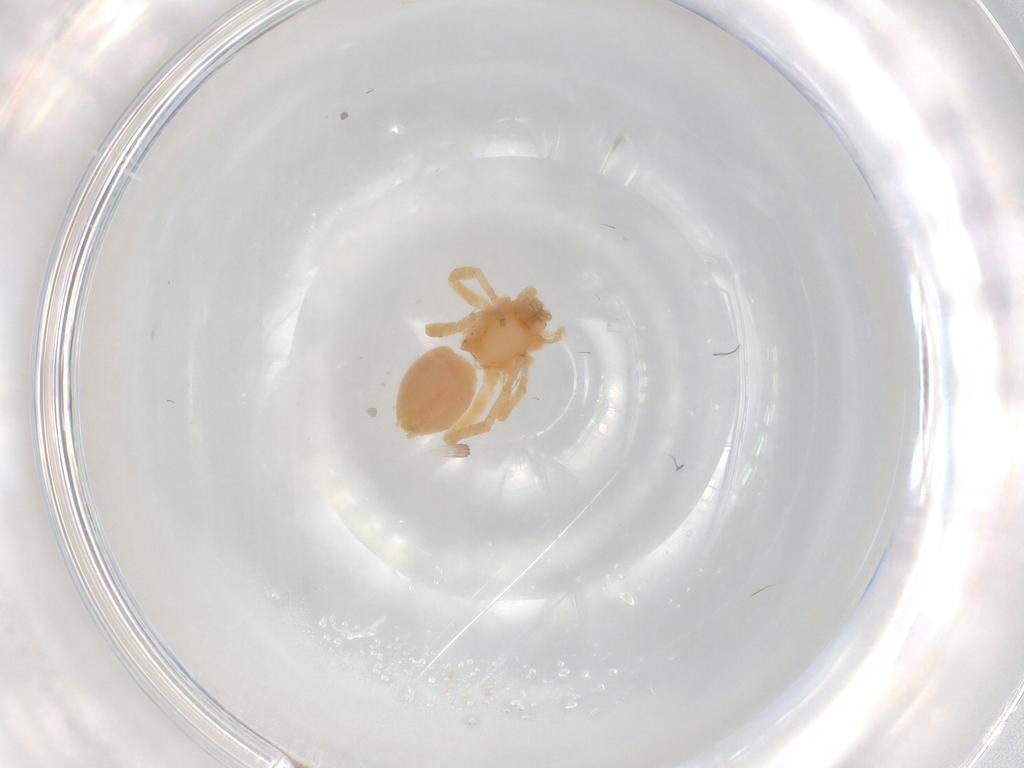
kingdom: Animalia
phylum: Arthropoda
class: Arachnida
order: Araneae
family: Anyphaenidae
